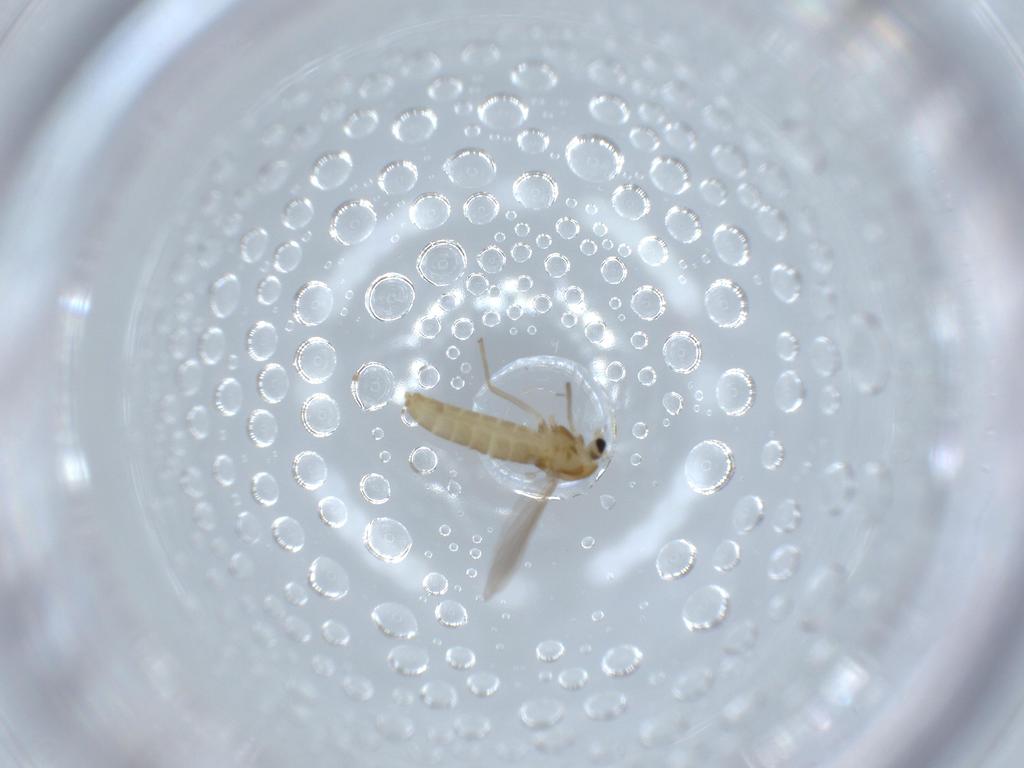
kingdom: Animalia
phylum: Arthropoda
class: Insecta
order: Diptera
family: Chironomidae
